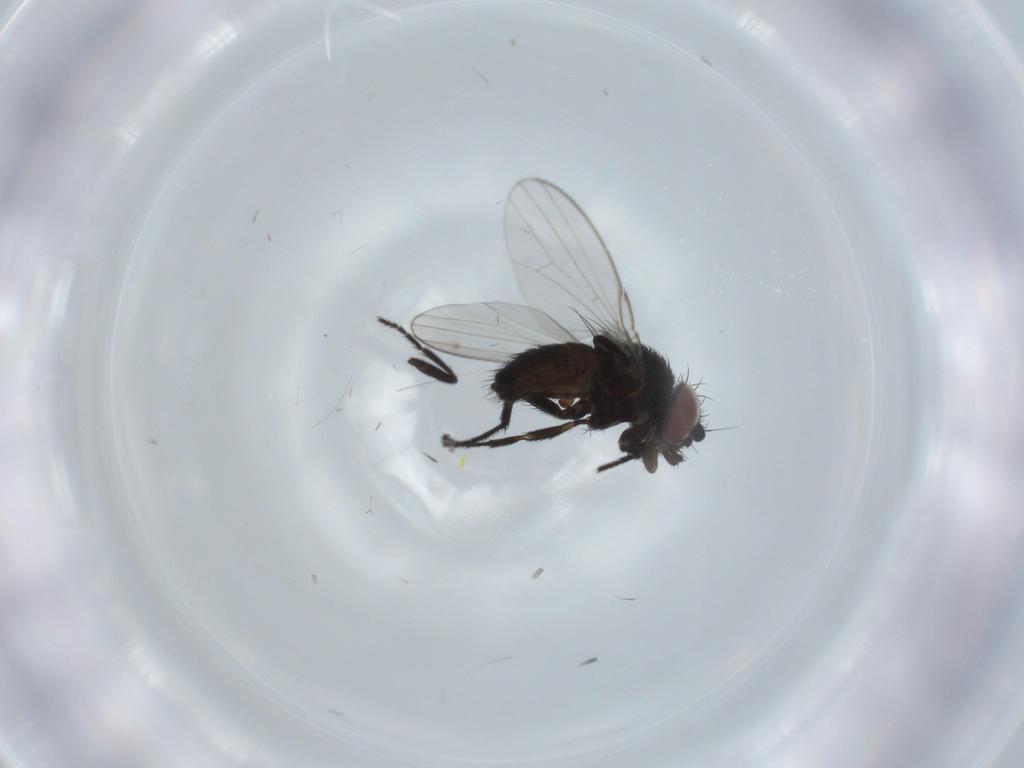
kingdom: Animalia
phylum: Arthropoda
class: Insecta
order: Diptera
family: Milichiidae
